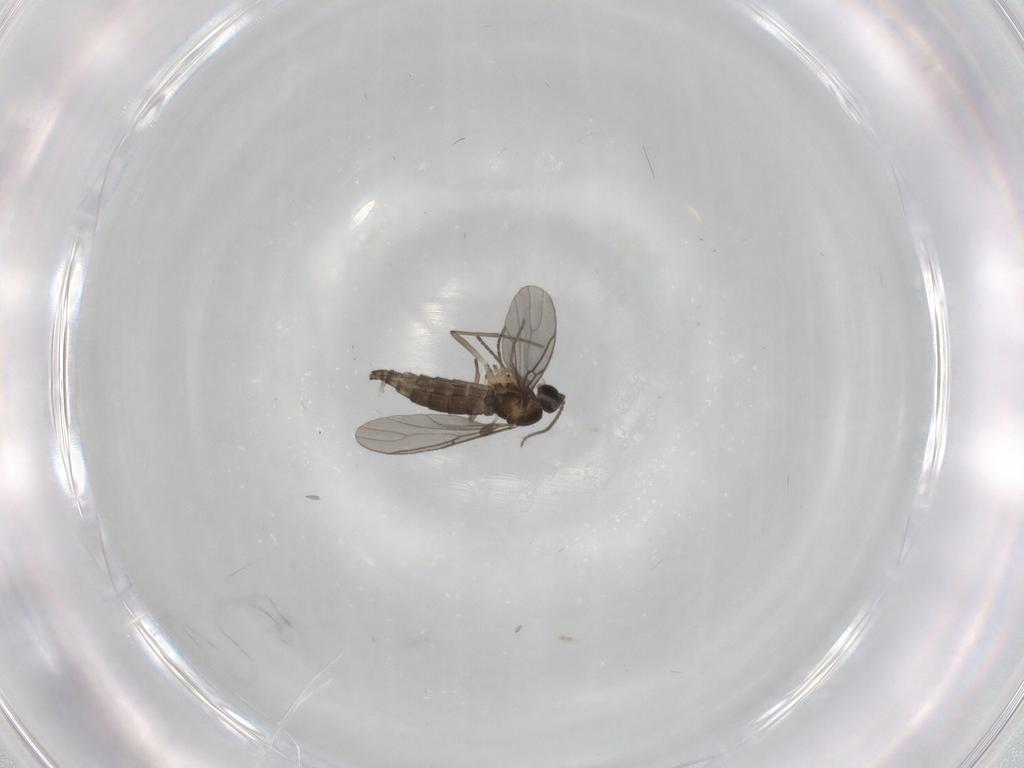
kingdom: Animalia
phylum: Arthropoda
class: Insecta
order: Diptera
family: Sciaridae
